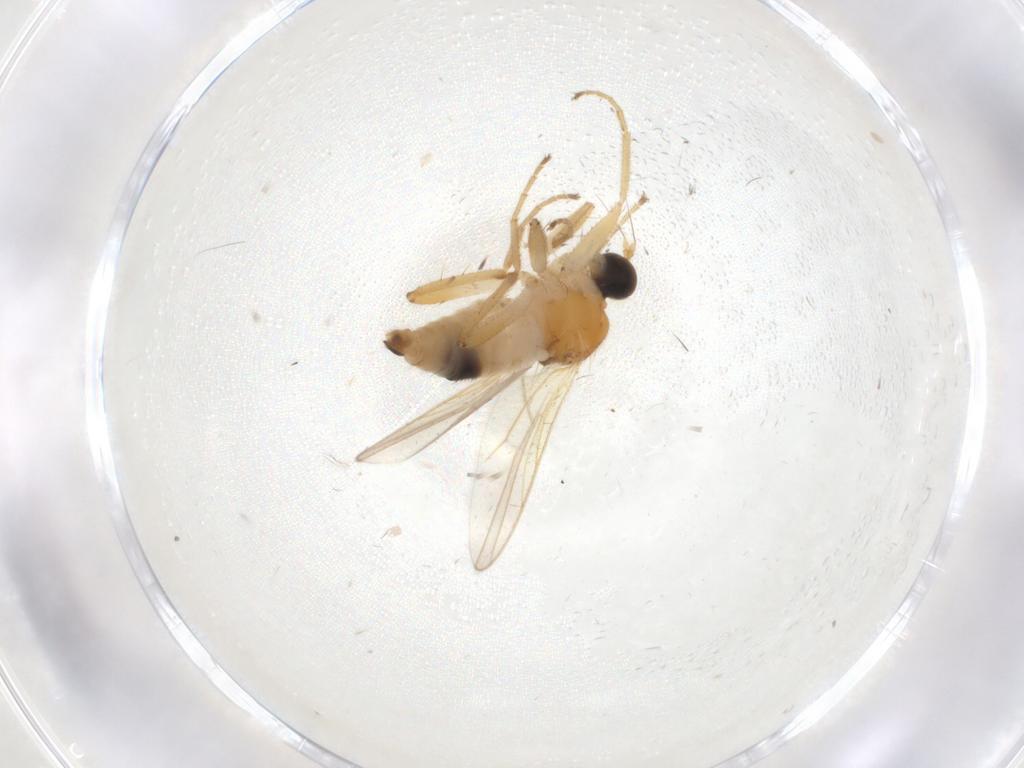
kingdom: Animalia
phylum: Arthropoda
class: Insecta
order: Diptera
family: Hybotidae
